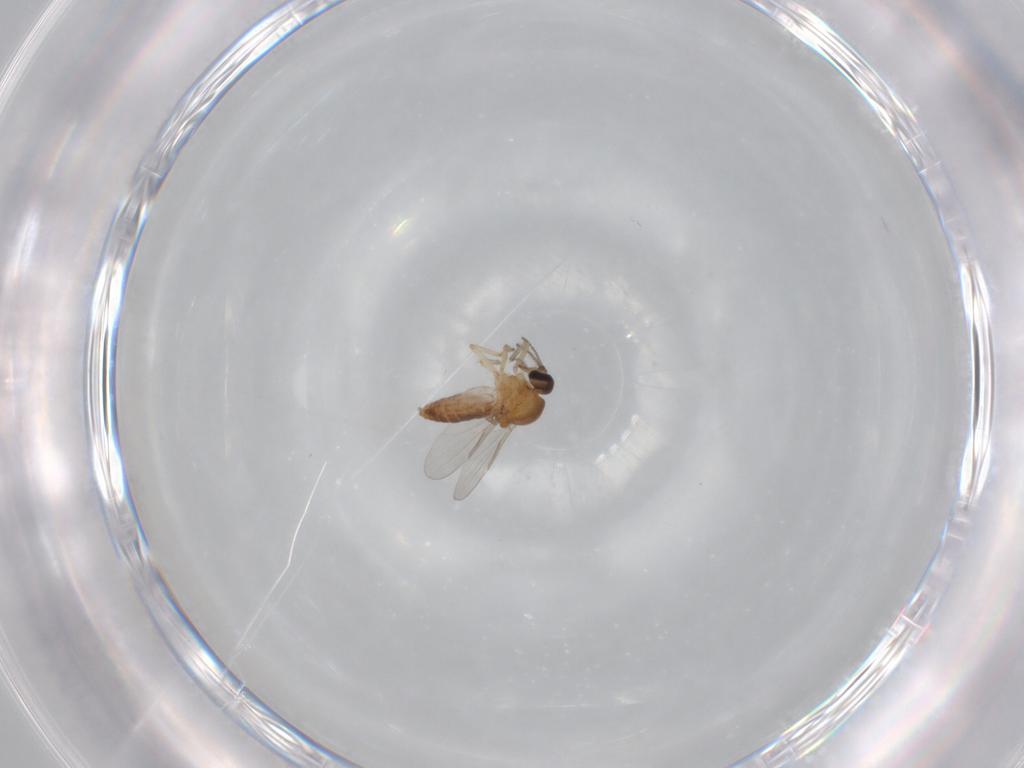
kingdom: Animalia
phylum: Arthropoda
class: Insecta
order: Diptera
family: Ceratopogonidae
